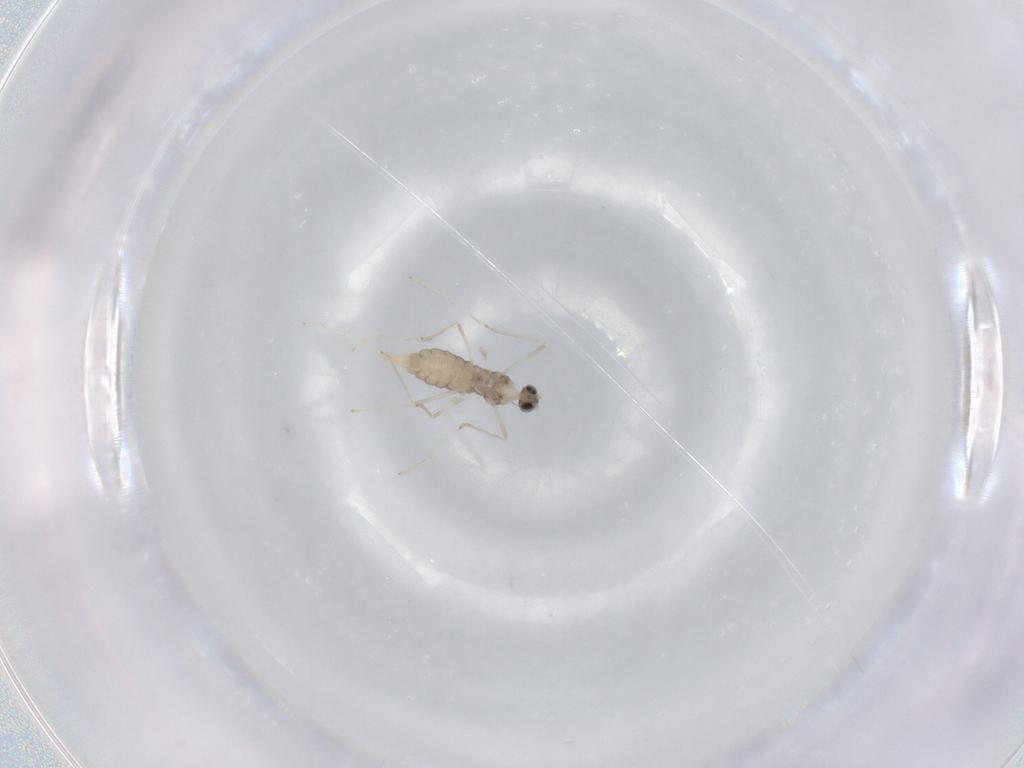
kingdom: Animalia
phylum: Arthropoda
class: Insecta
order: Diptera
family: Cecidomyiidae
